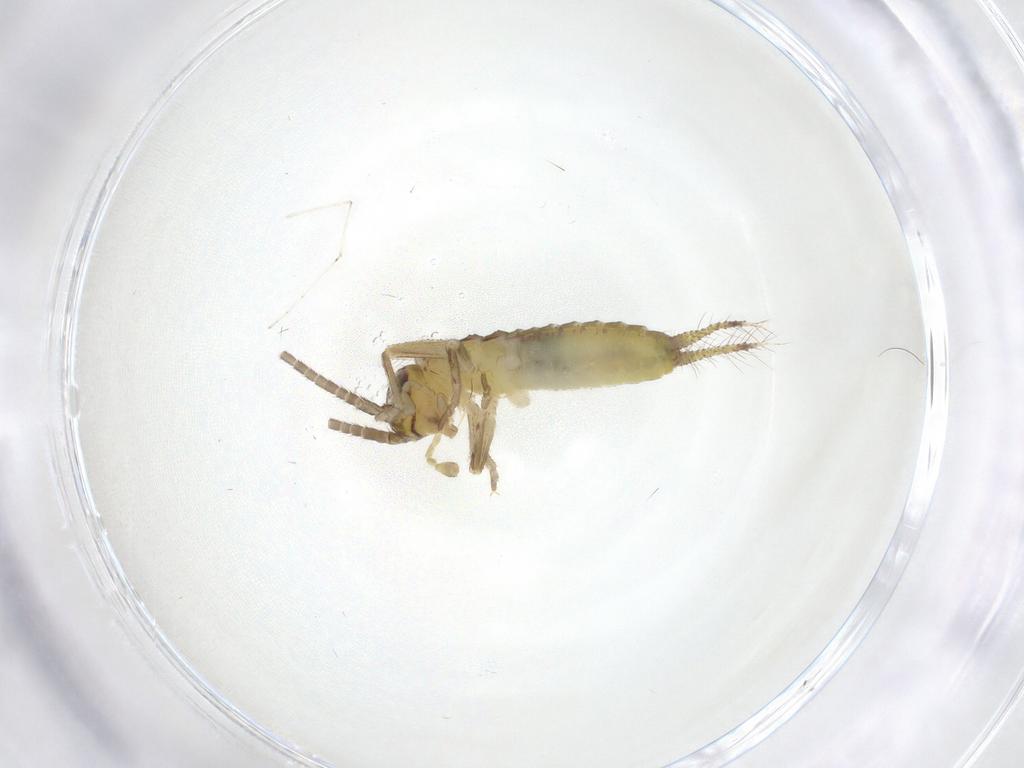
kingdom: Animalia
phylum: Arthropoda
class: Insecta
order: Orthoptera
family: Gryllidae
